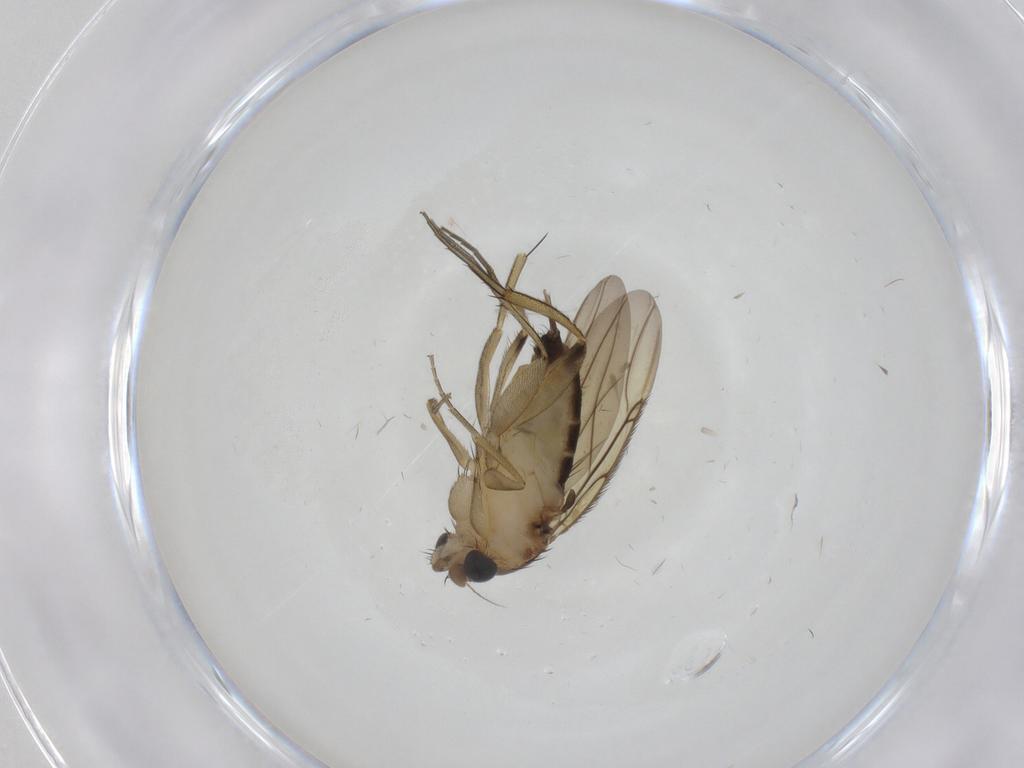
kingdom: Animalia
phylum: Arthropoda
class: Insecta
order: Diptera
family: Phoridae
